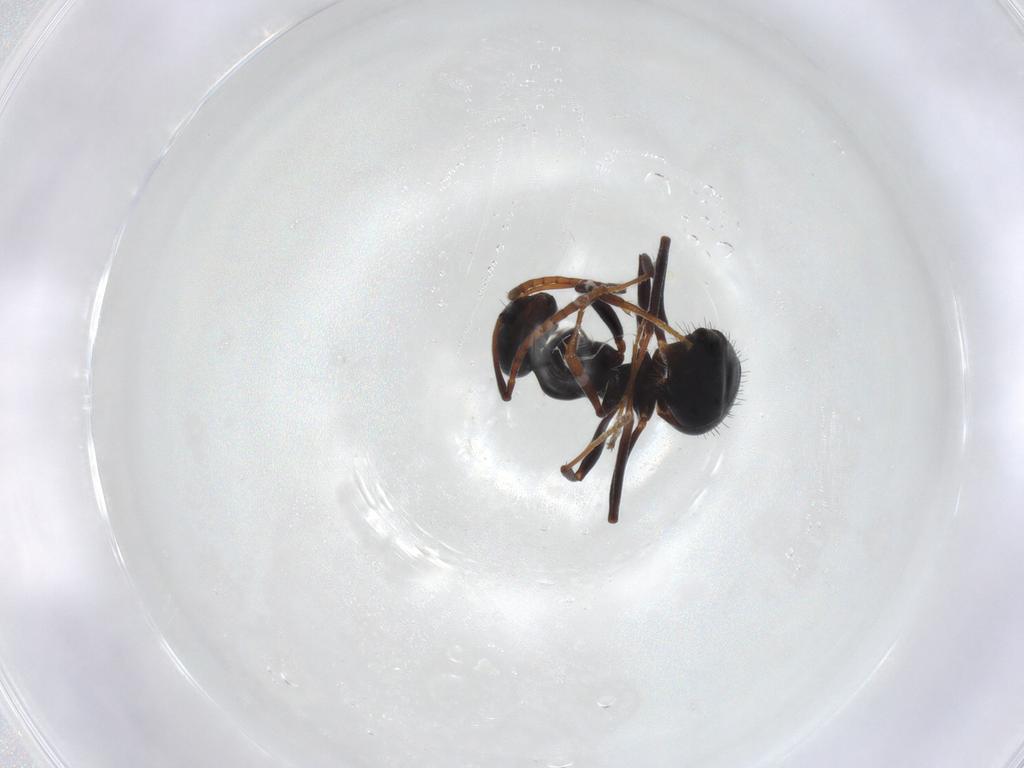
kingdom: Animalia
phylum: Arthropoda
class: Insecta
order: Hymenoptera
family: Formicidae
